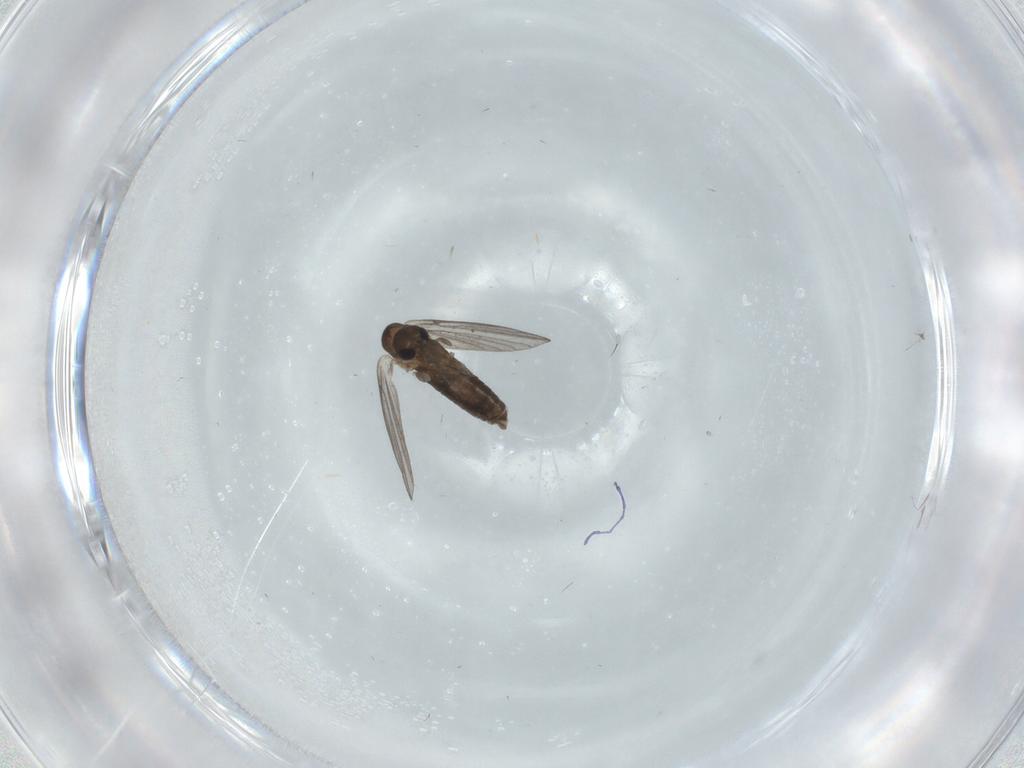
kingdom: Animalia
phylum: Arthropoda
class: Insecta
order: Diptera
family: Psychodidae
